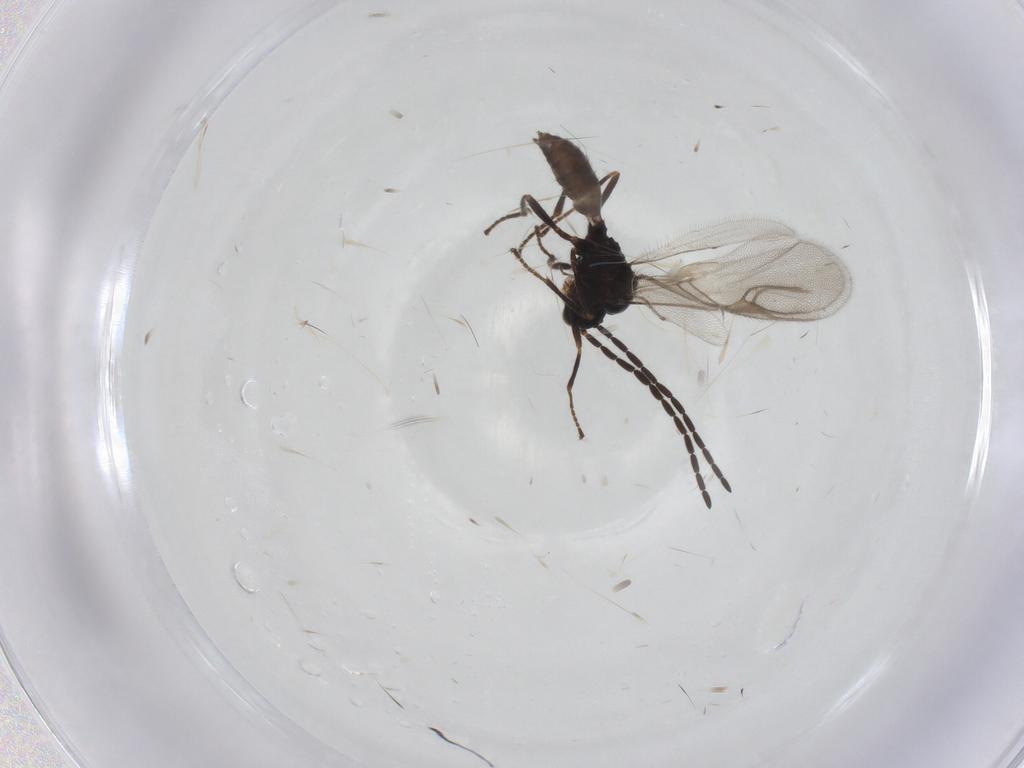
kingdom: Animalia
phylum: Arthropoda
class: Insecta
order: Hymenoptera
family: Braconidae
